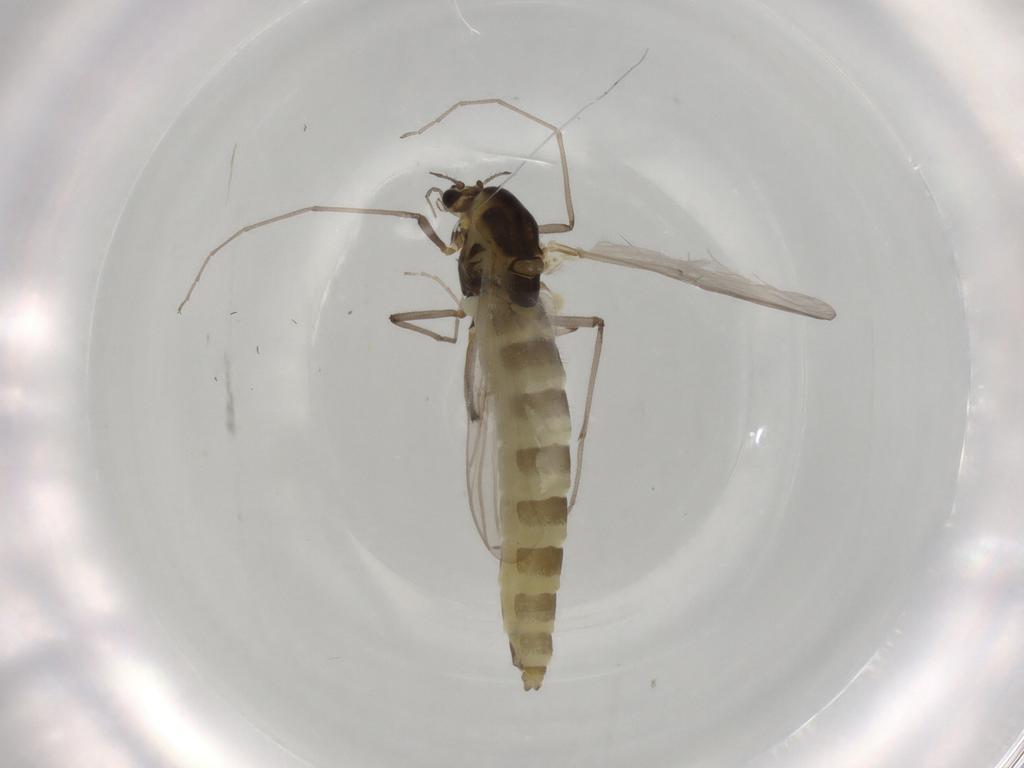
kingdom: Animalia
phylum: Arthropoda
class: Insecta
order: Diptera
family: Chironomidae
